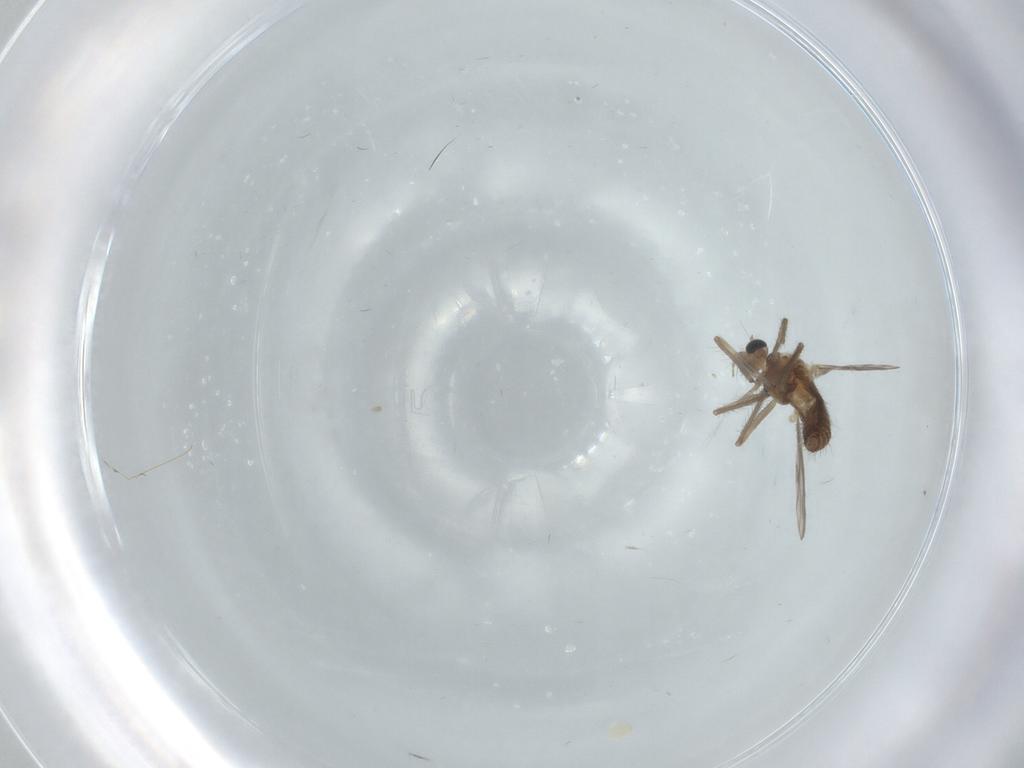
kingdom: Animalia
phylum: Arthropoda
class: Insecta
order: Diptera
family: Chironomidae
